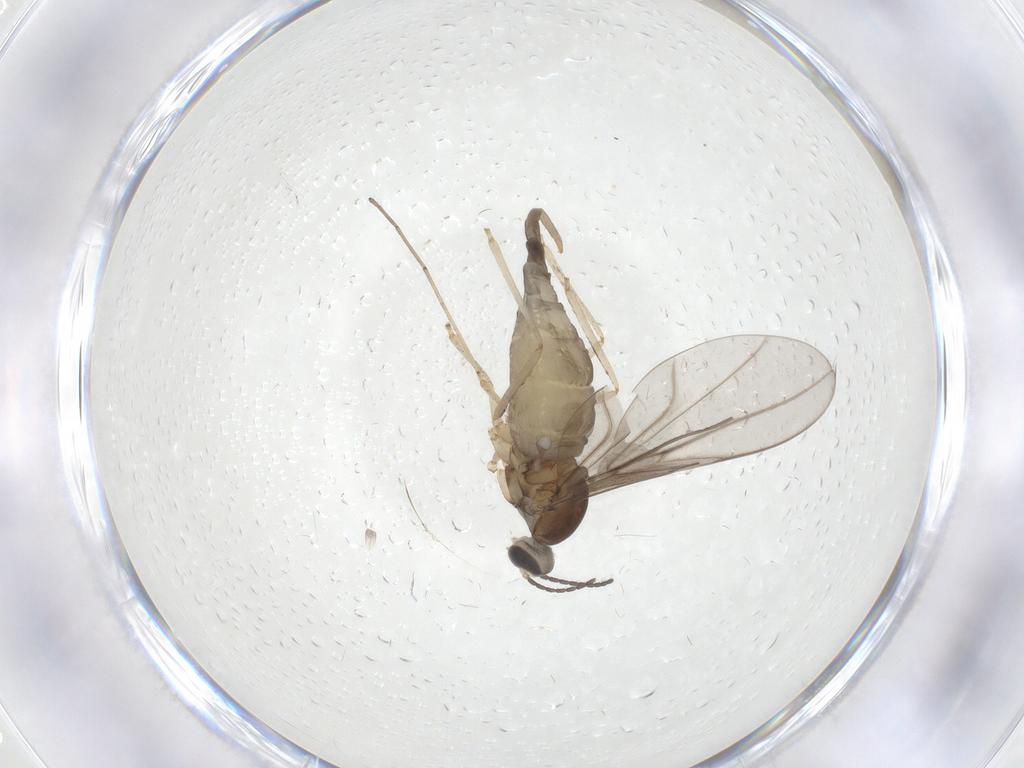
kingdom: Animalia
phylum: Arthropoda
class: Insecta
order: Diptera
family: Cecidomyiidae
